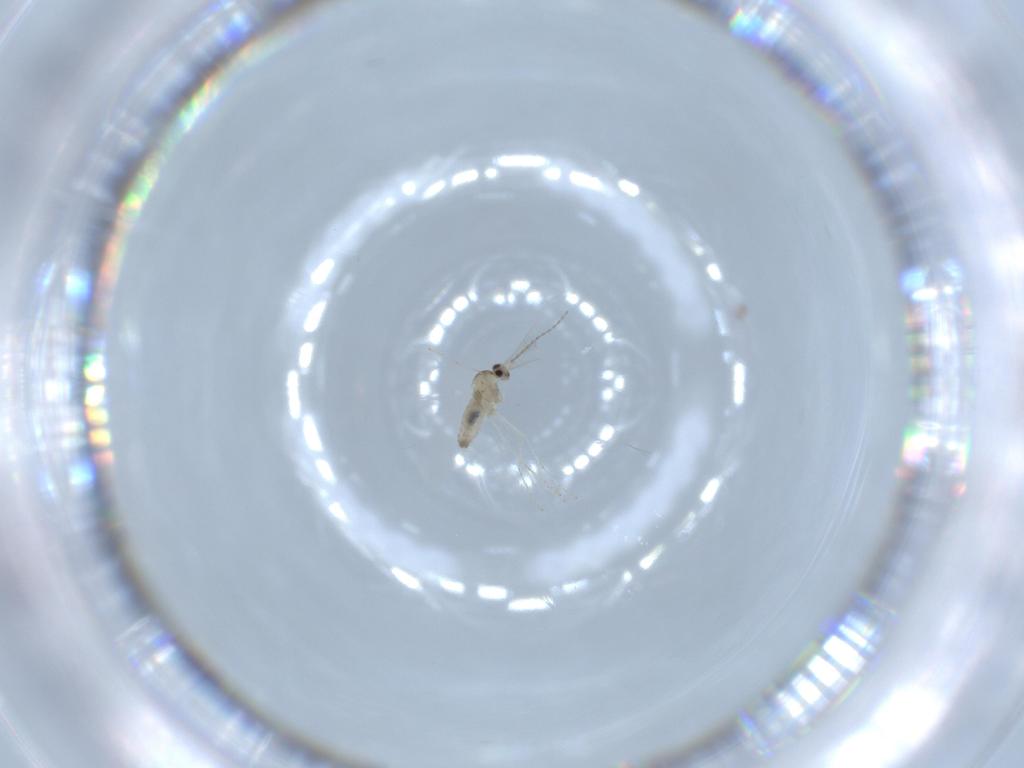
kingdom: Animalia
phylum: Arthropoda
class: Insecta
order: Diptera
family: Cecidomyiidae
